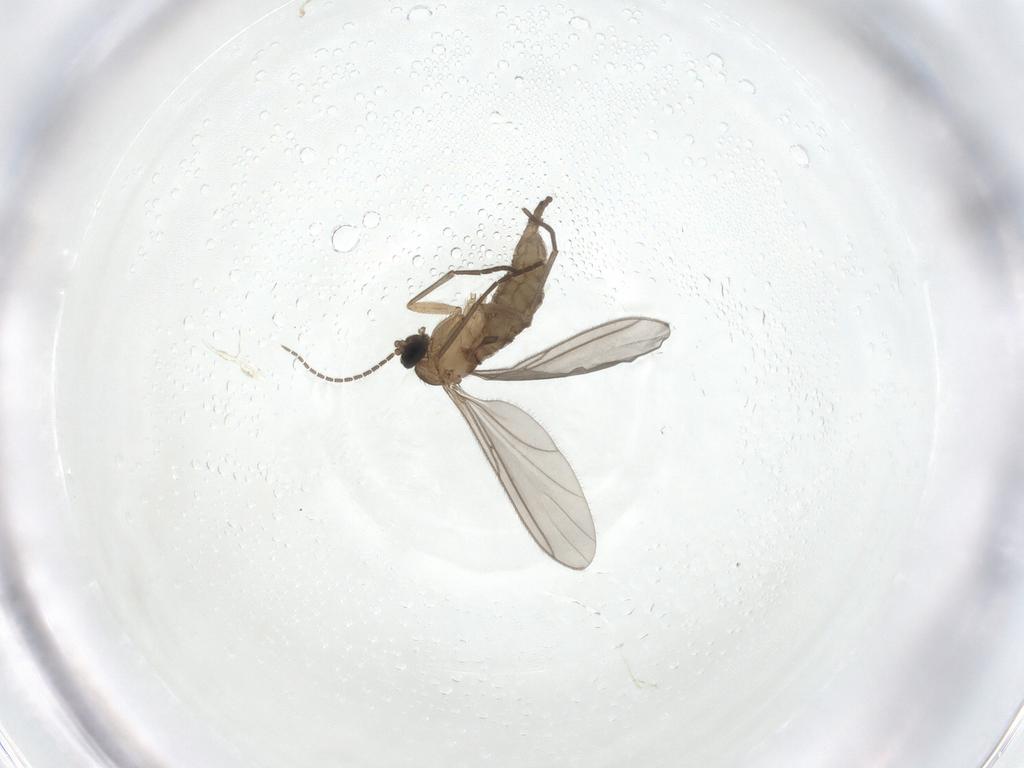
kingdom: Animalia
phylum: Arthropoda
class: Insecta
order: Diptera
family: Sciaridae
